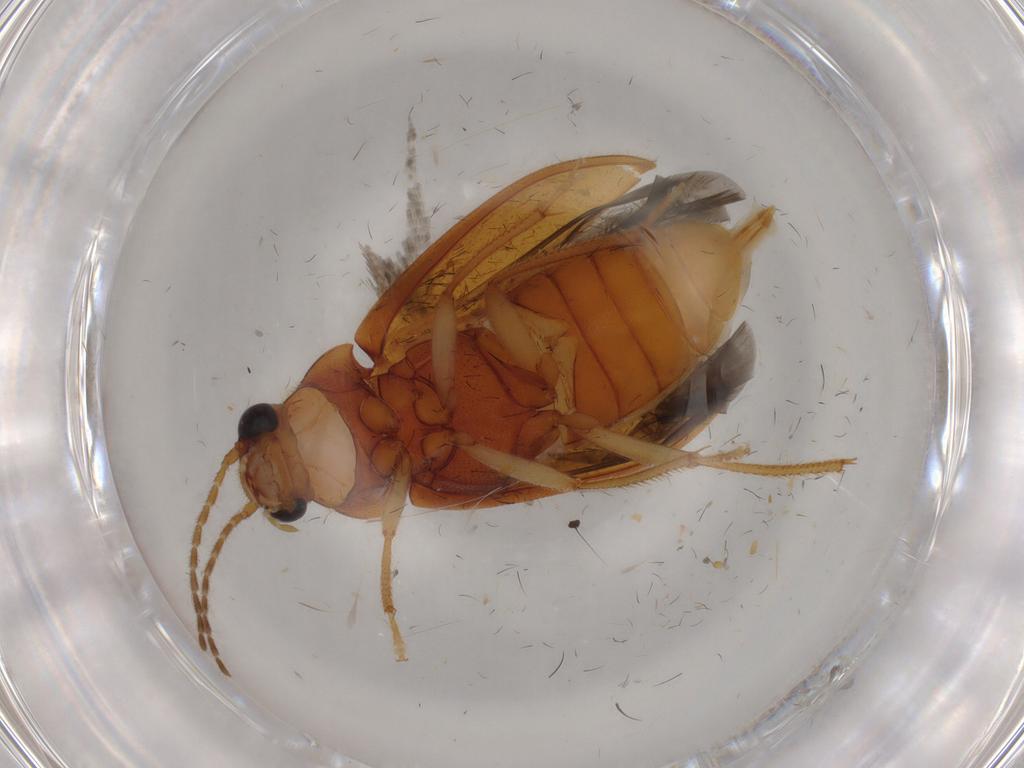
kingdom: Animalia
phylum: Arthropoda
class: Insecta
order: Coleoptera
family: Ptilodactylidae
